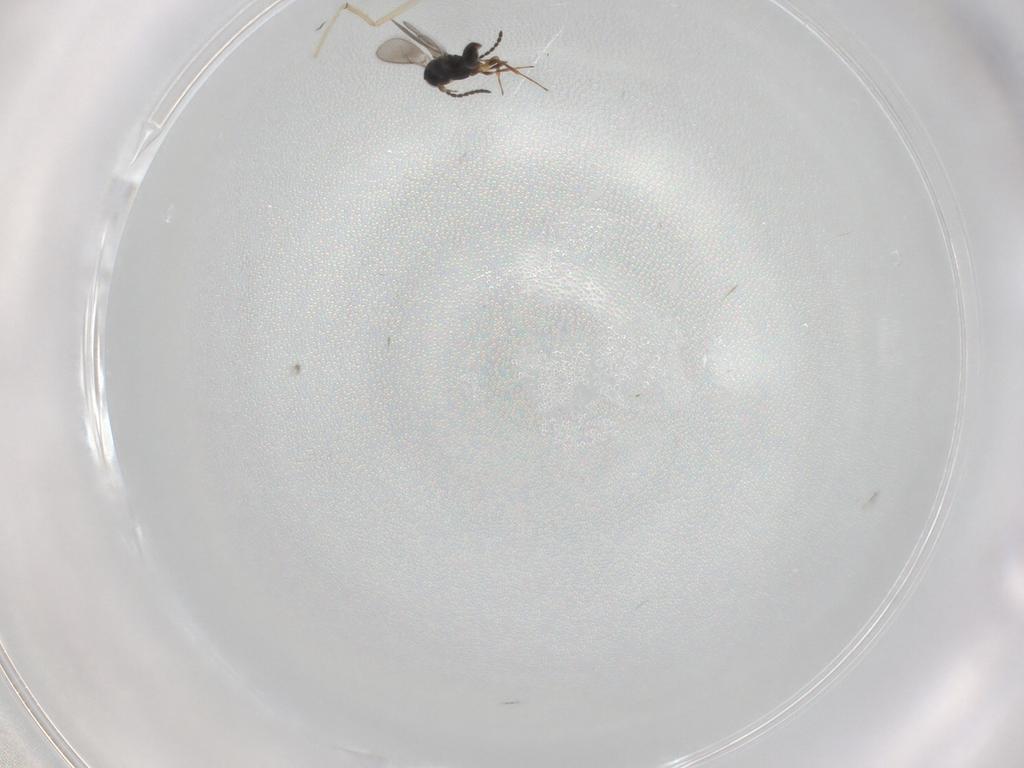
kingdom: Animalia
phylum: Arthropoda
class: Insecta
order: Hymenoptera
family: Scelionidae
